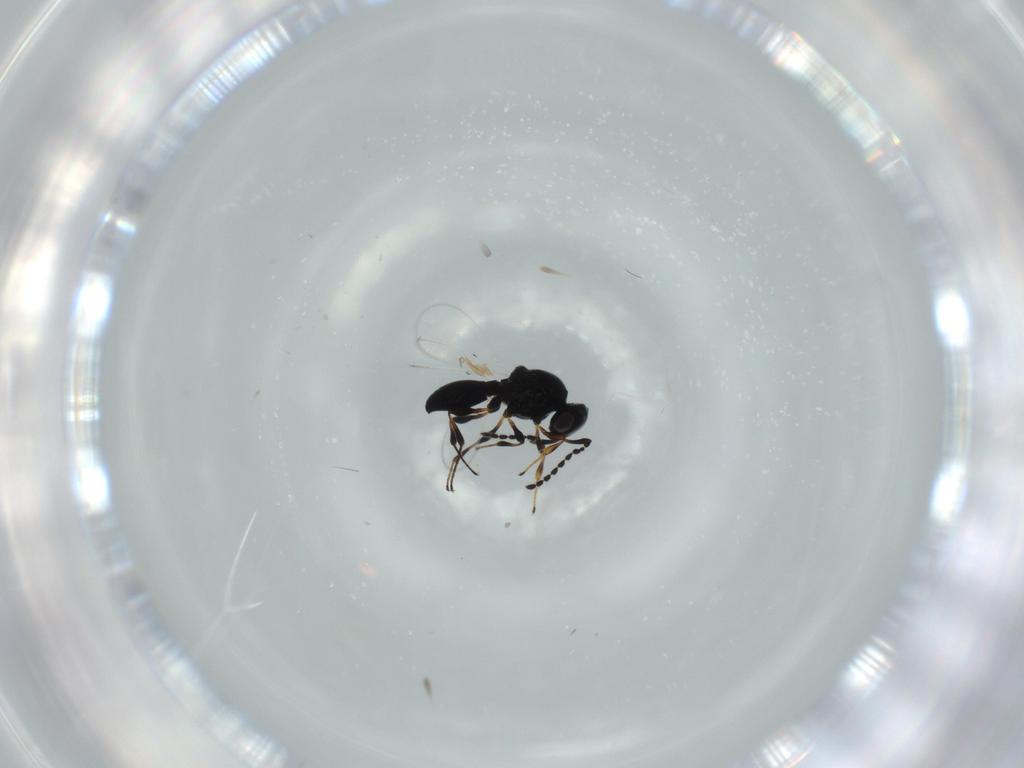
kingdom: Animalia
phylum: Arthropoda
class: Insecta
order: Hymenoptera
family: Platygastridae
